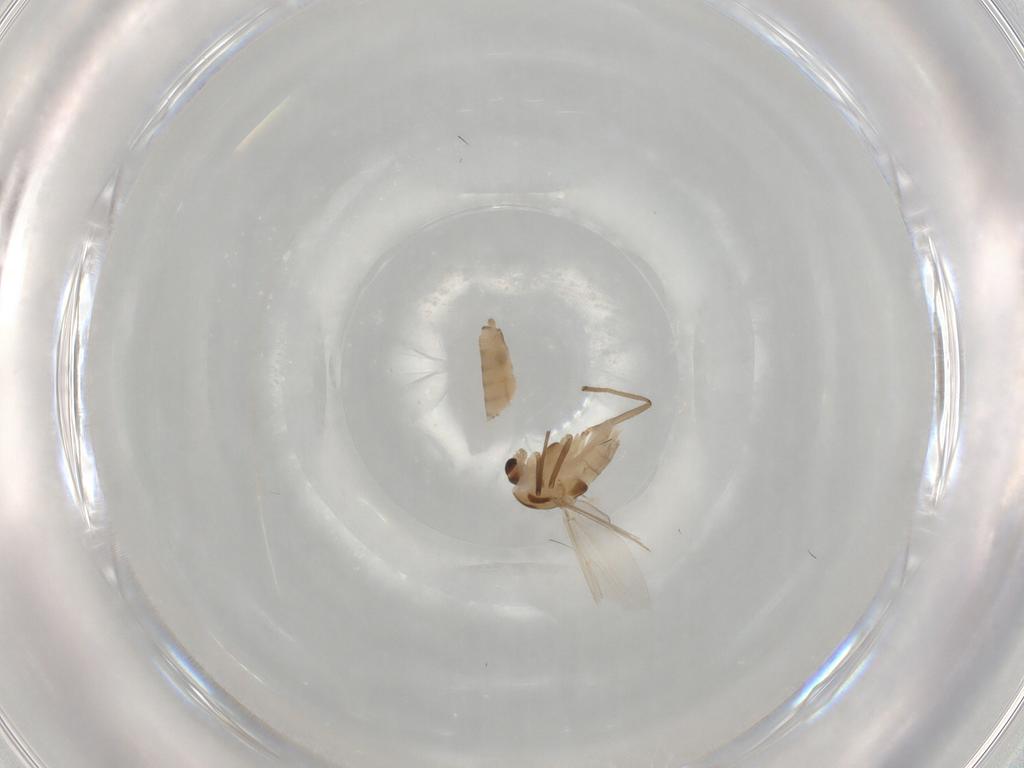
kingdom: Animalia
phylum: Arthropoda
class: Insecta
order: Diptera
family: Chironomidae
